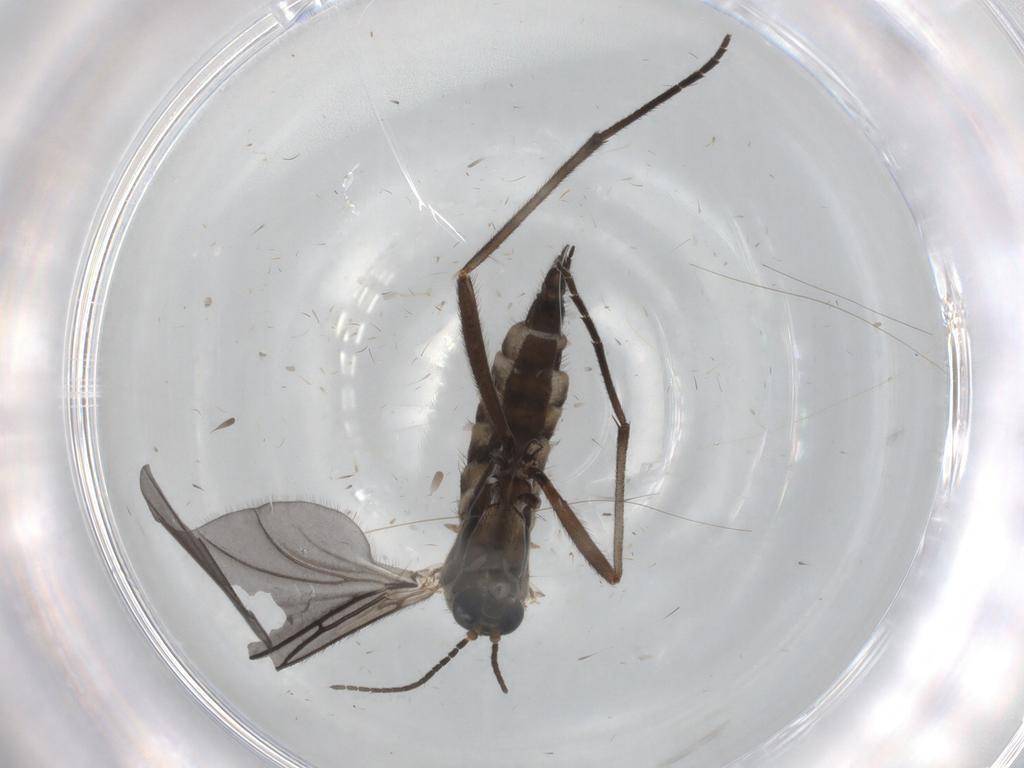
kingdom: Animalia
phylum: Arthropoda
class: Insecta
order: Diptera
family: Sciaridae
